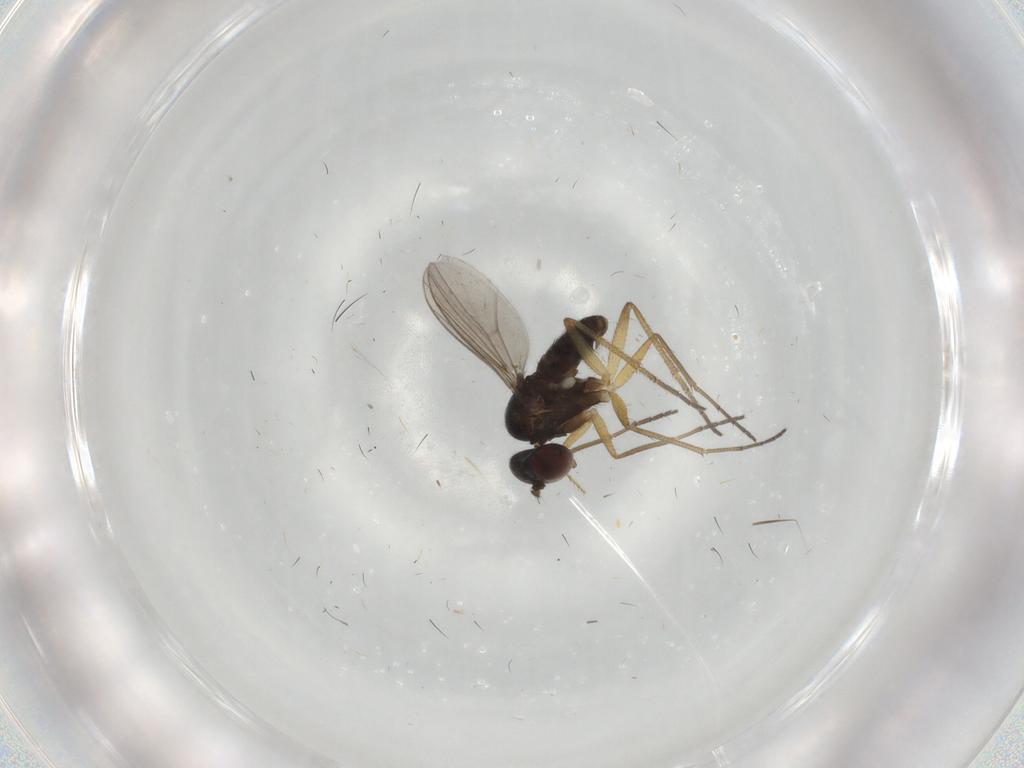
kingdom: Animalia
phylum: Arthropoda
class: Insecta
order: Diptera
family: Dolichopodidae
